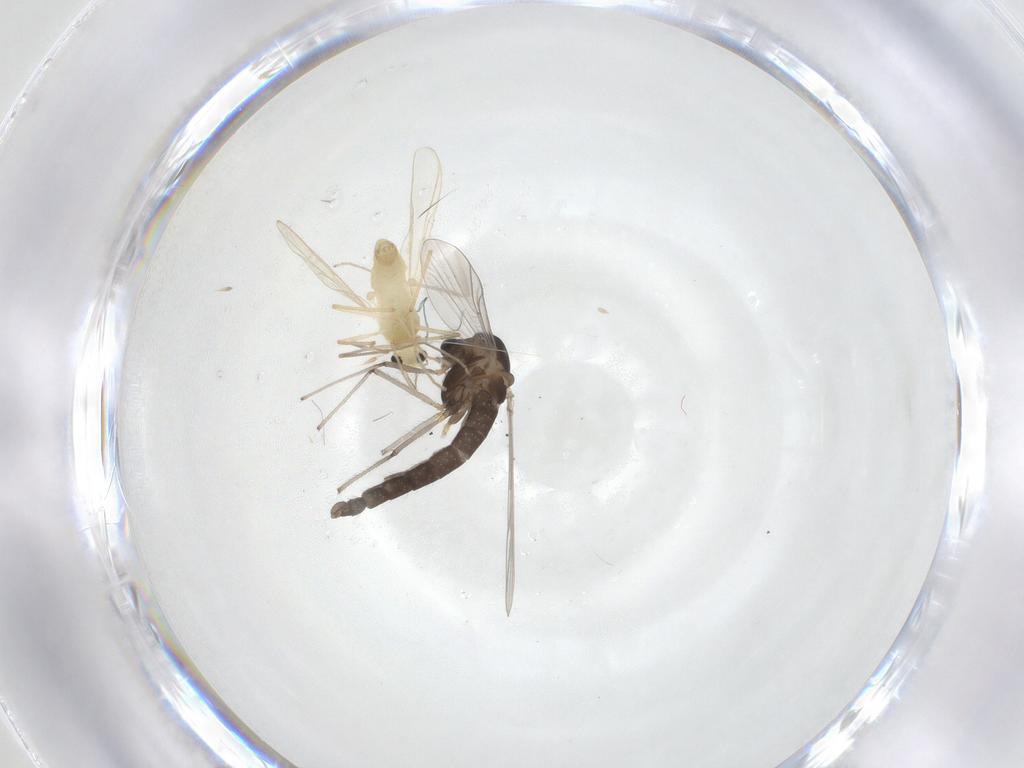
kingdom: Animalia
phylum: Arthropoda
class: Insecta
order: Diptera
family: Chironomidae
